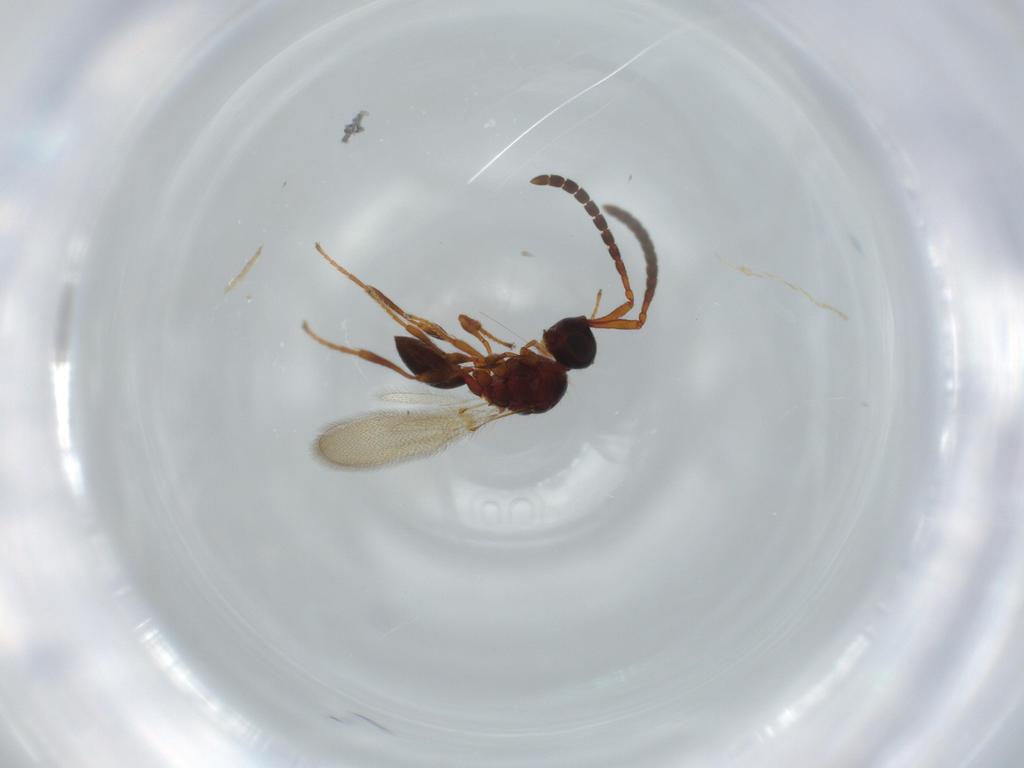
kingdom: Animalia
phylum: Arthropoda
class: Insecta
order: Hymenoptera
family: Diapriidae
